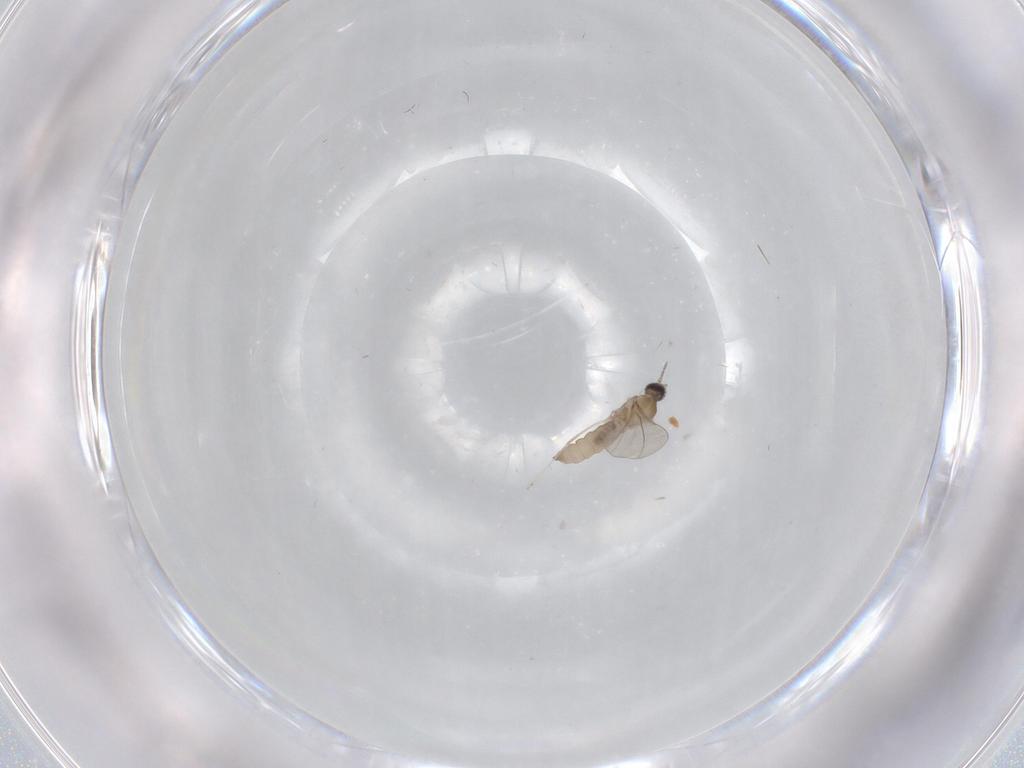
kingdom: Animalia
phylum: Arthropoda
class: Insecta
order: Diptera
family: Cecidomyiidae
